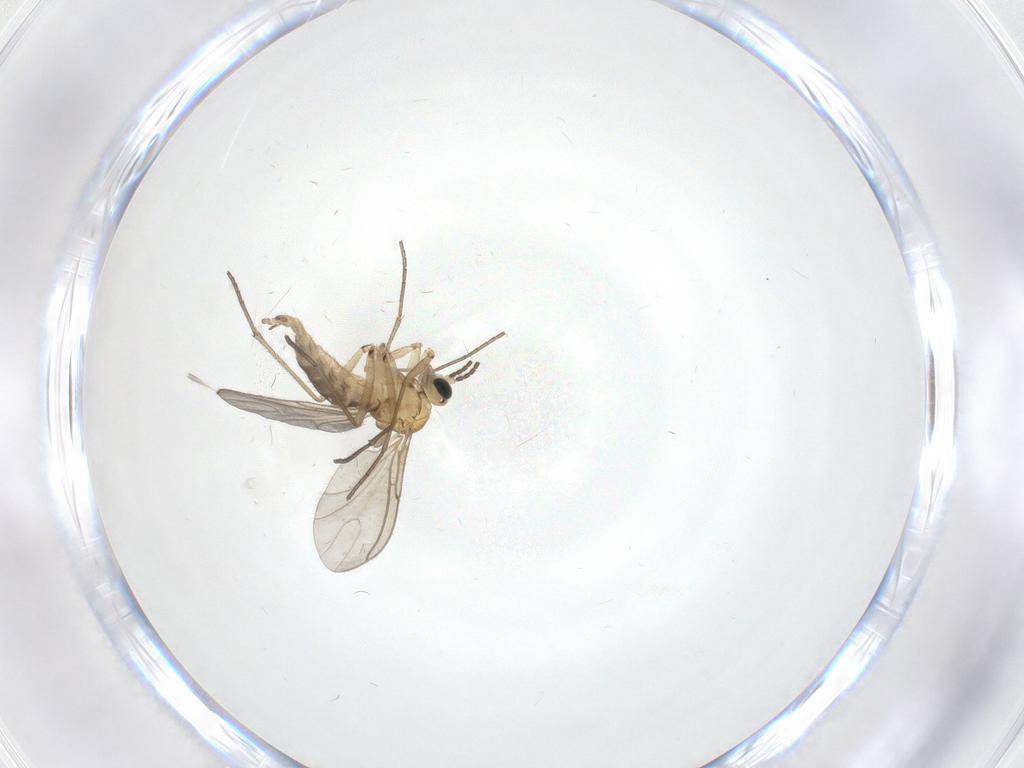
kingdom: Animalia
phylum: Arthropoda
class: Insecta
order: Diptera
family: Sciaridae
